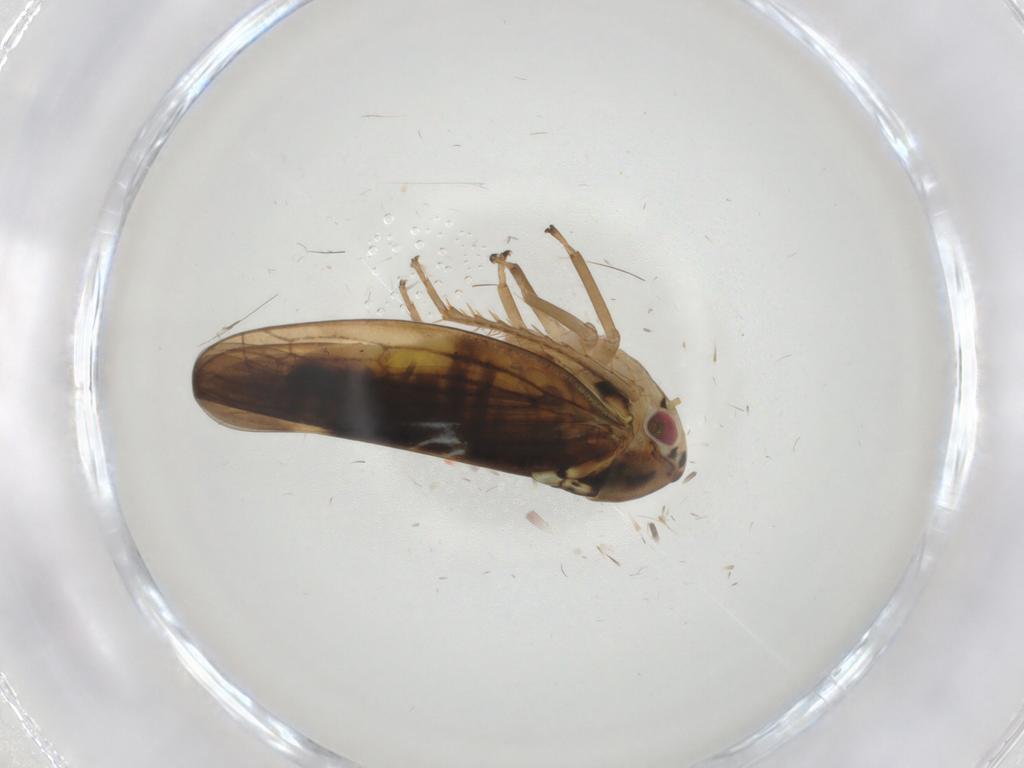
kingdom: Animalia
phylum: Arthropoda
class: Insecta
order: Hemiptera
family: Cicadellidae
